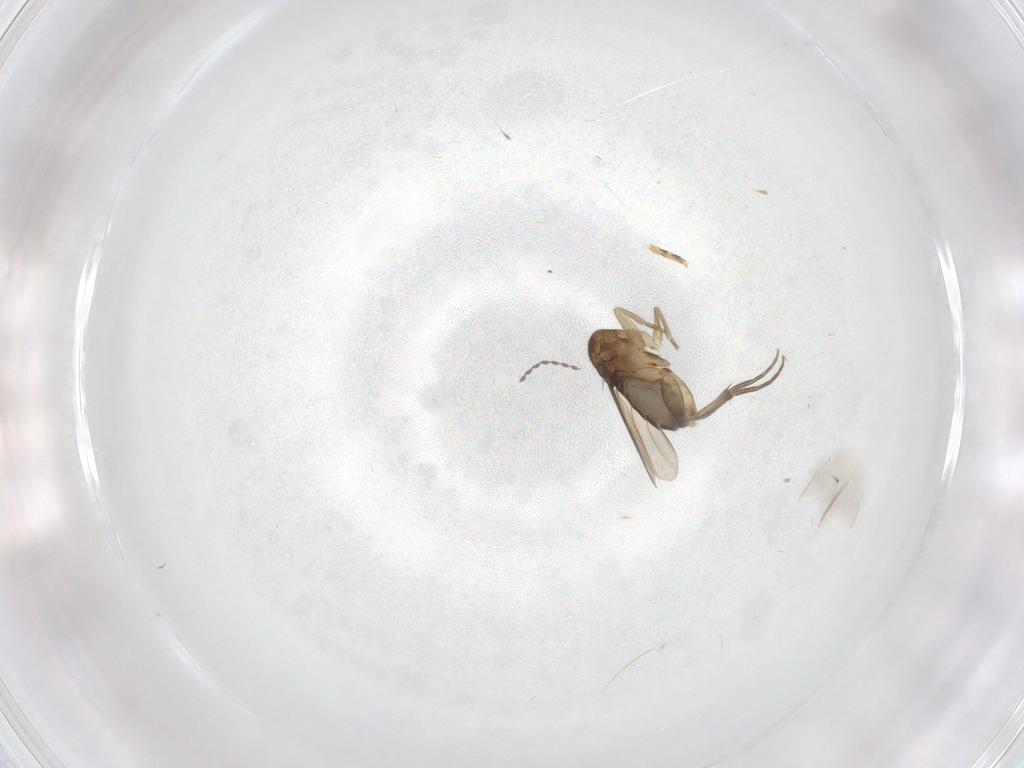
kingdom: Animalia
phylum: Arthropoda
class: Insecta
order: Diptera
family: Phoridae
